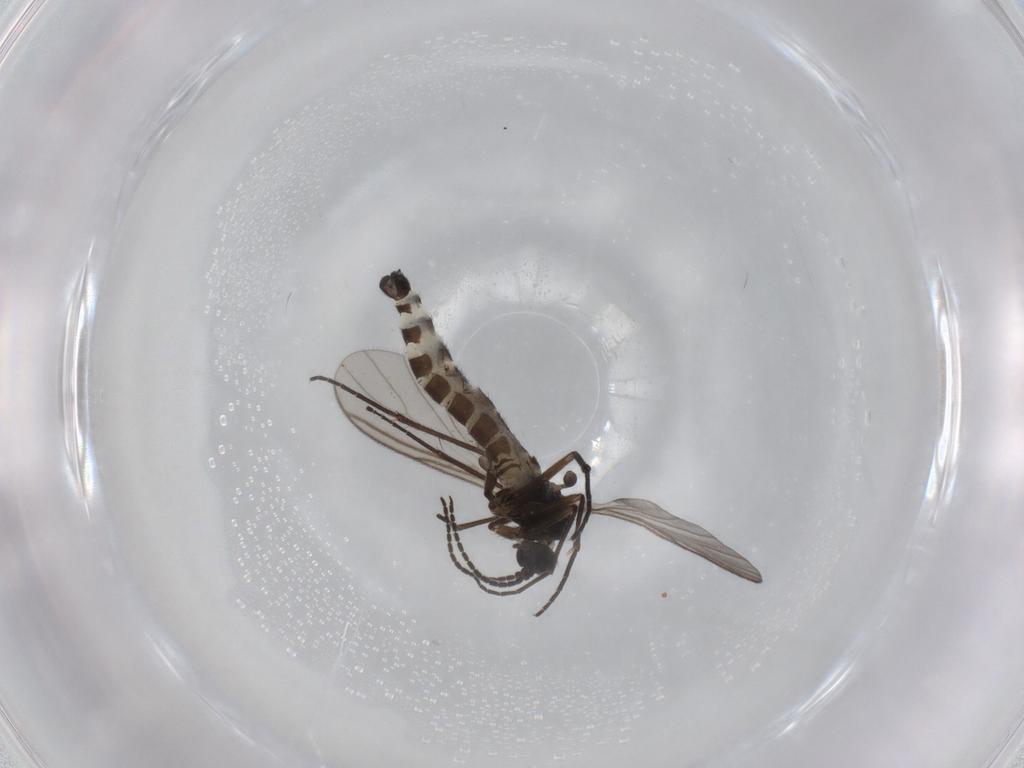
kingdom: Animalia
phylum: Arthropoda
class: Insecta
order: Diptera
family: Sciaridae
